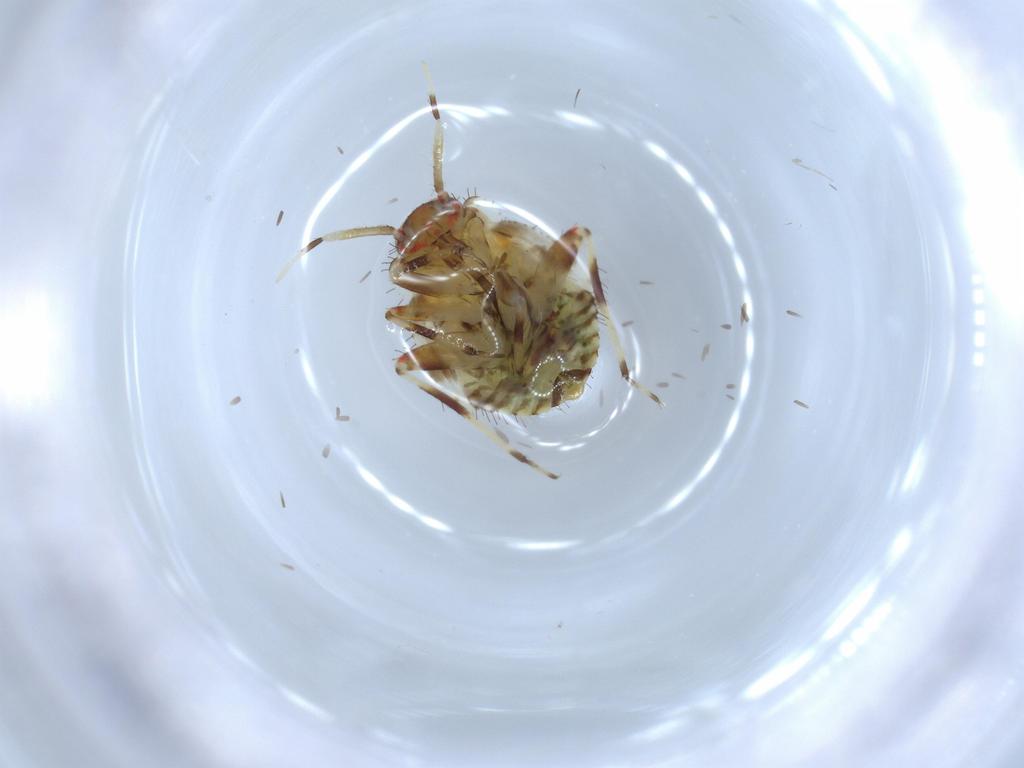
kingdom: Animalia
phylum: Arthropoda
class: Insecta
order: Hemiptera
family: Miridae
